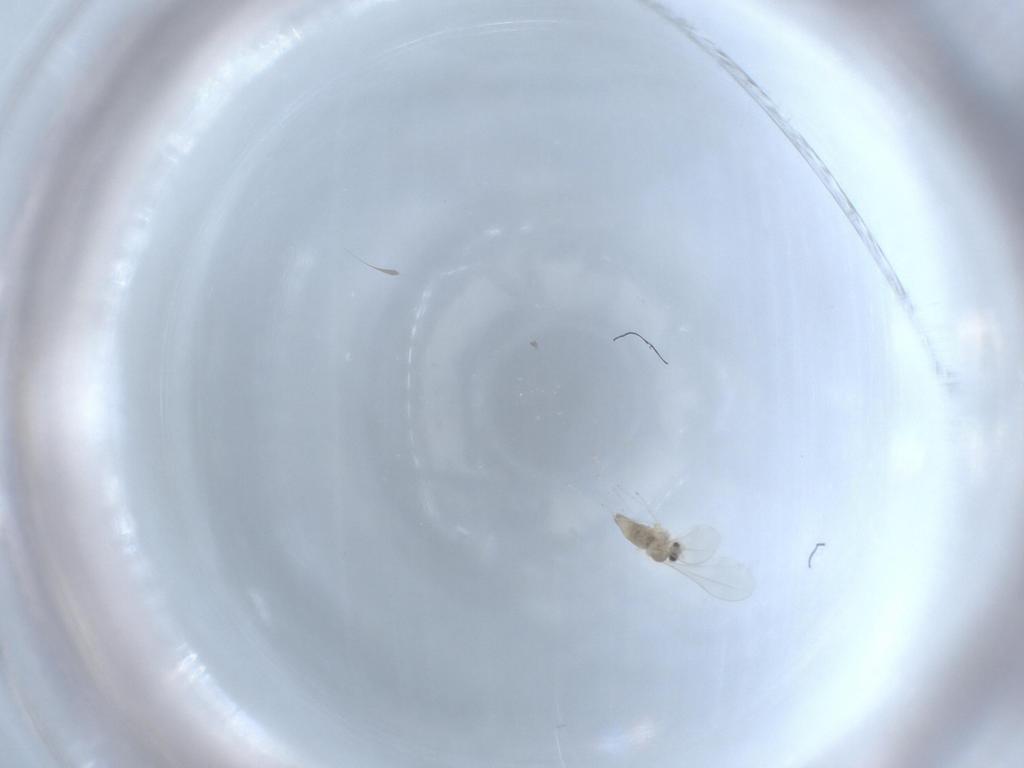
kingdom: Animalia
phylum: Arthropoda
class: Insecta
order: Diptera
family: Cecidomyiidae
